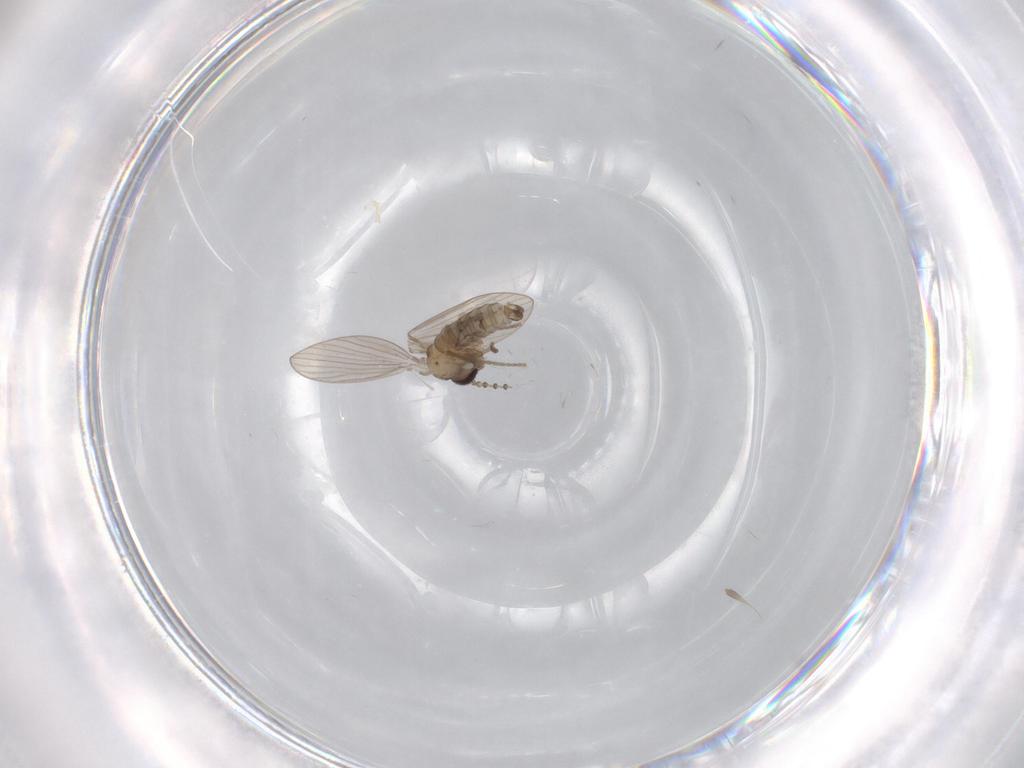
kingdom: Animalia
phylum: Arthropoda
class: Insecta
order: Diptera
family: Psychodidae
